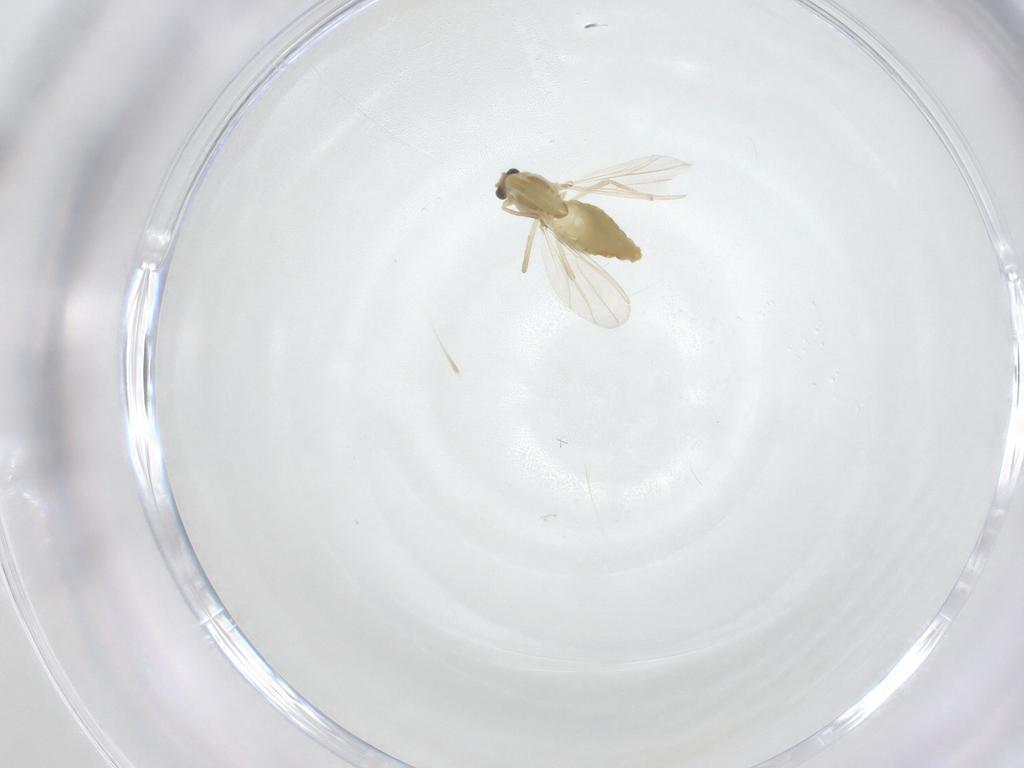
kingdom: Animalia
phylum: Arthropoda
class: Insecta
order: Diptera
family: Chironomidae
